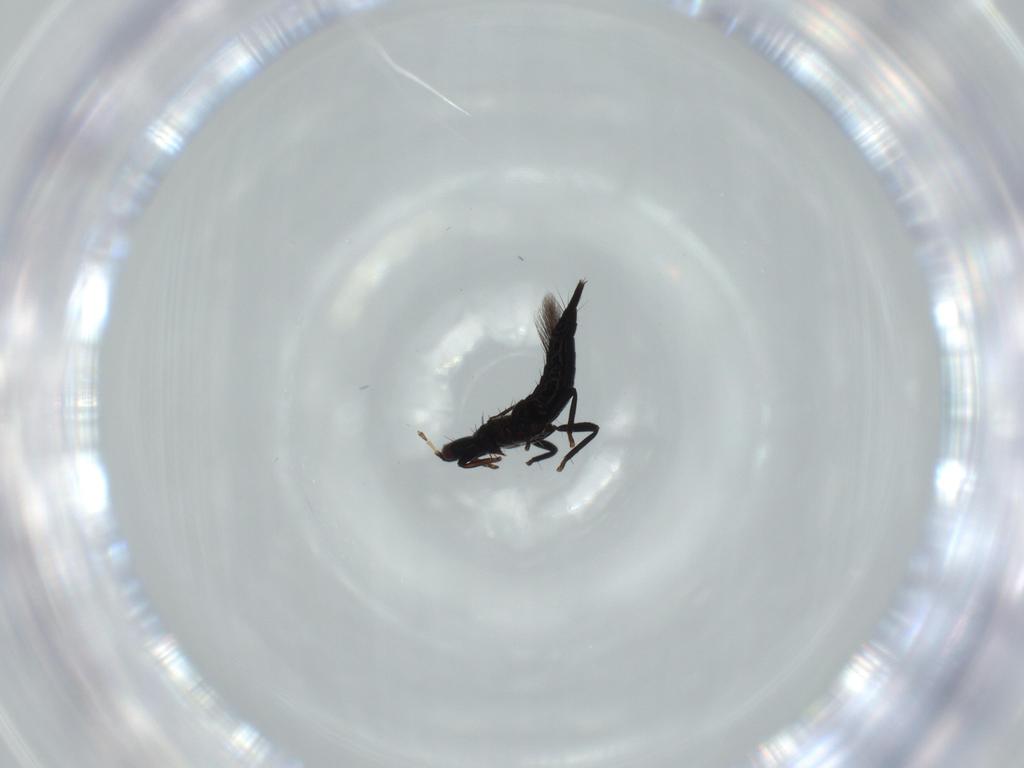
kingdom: Animalia
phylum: Arthropoda
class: Insecta
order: Thysanoptera
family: Phlaeothripidae
